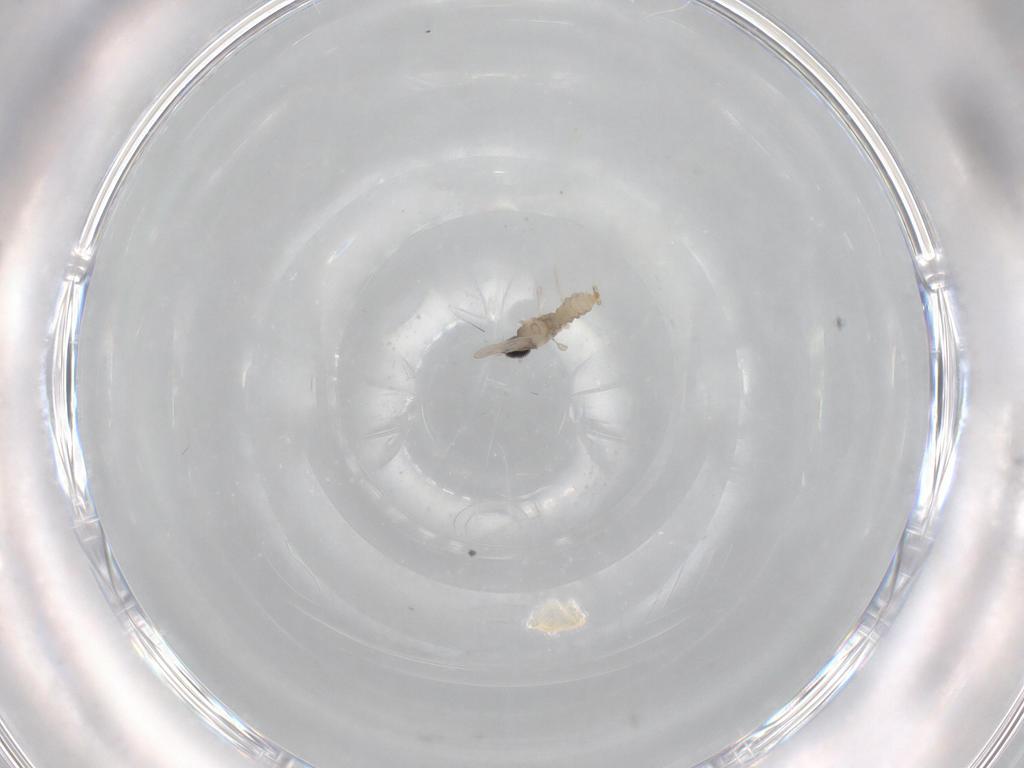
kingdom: Animalia
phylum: Arthropoda
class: Insecta
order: Diptera
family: Cecidomyiidae
